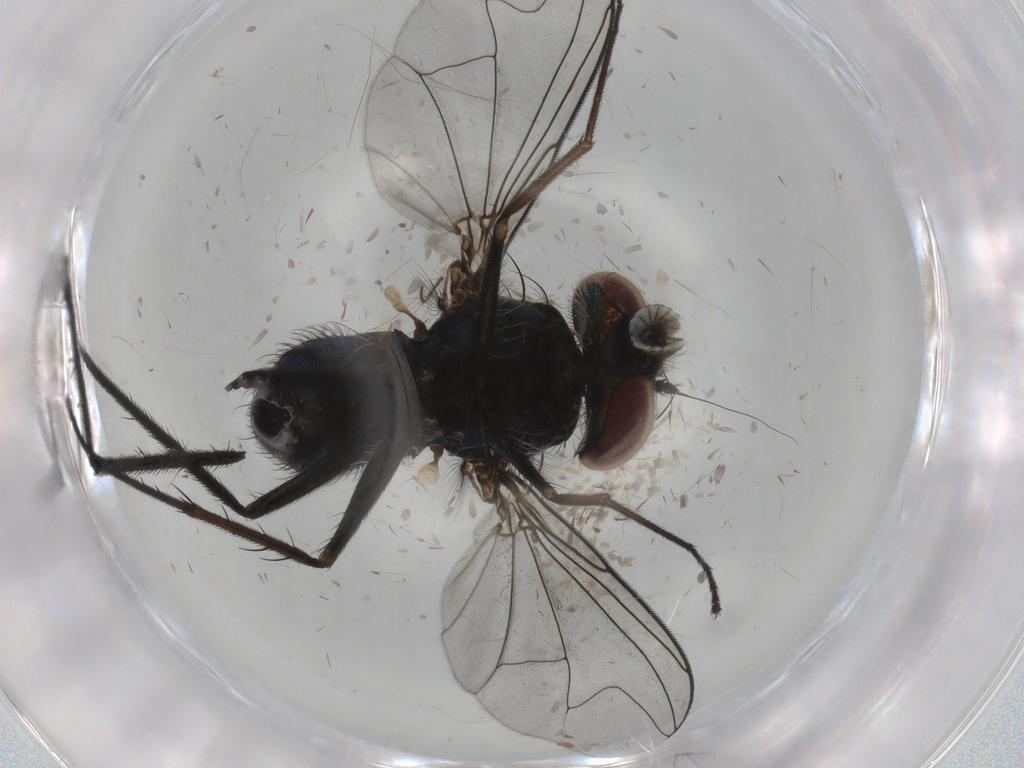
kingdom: Animalia
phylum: Arthropoda
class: Insecta
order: Diptera
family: Dolichopodidae
